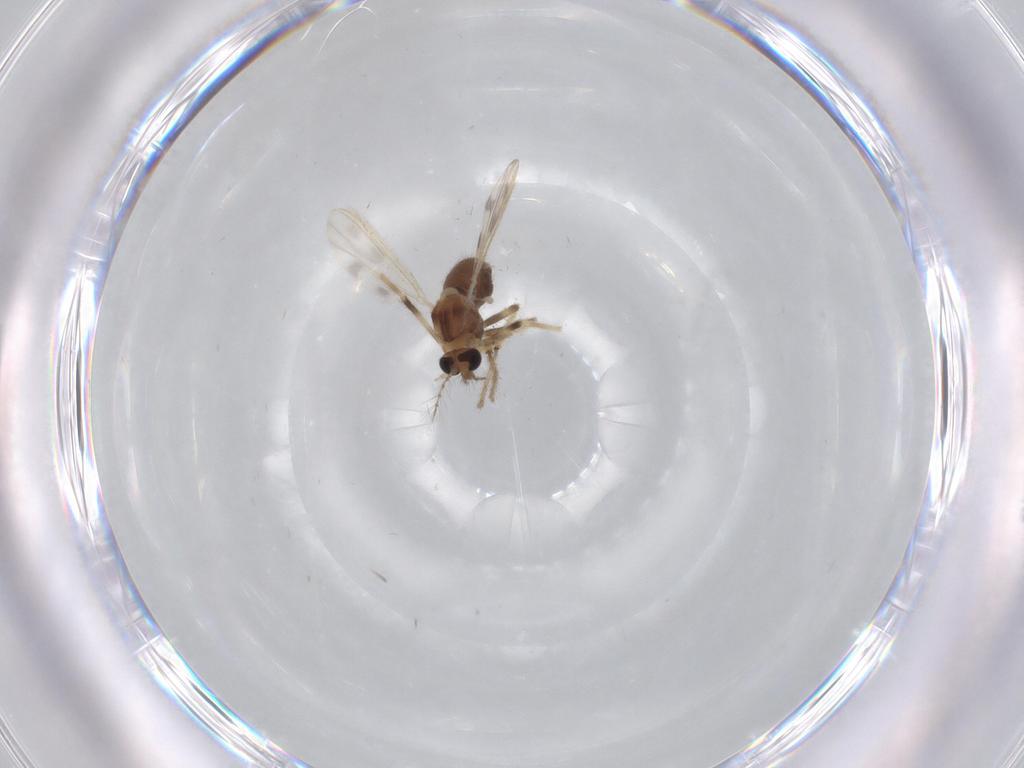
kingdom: Animalia
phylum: Arthropoda
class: Insecta
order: Diptera
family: Chironomidae
